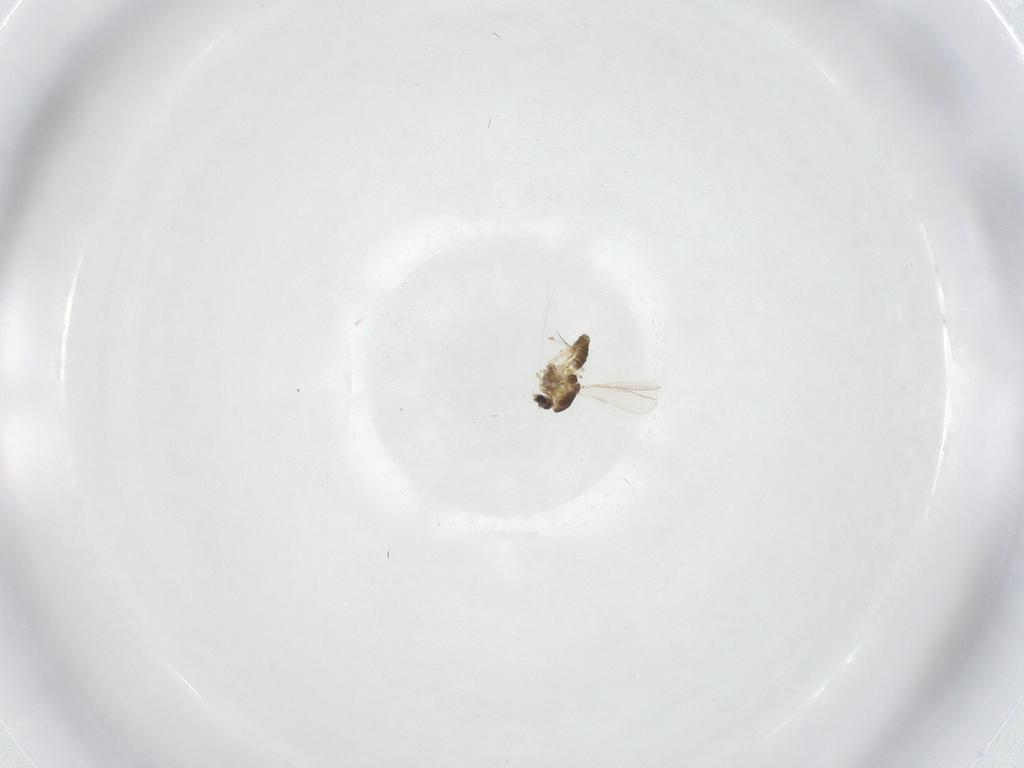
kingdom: Animalia
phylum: Arthropoda
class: Insecta
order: Diptera
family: Chironomidae
